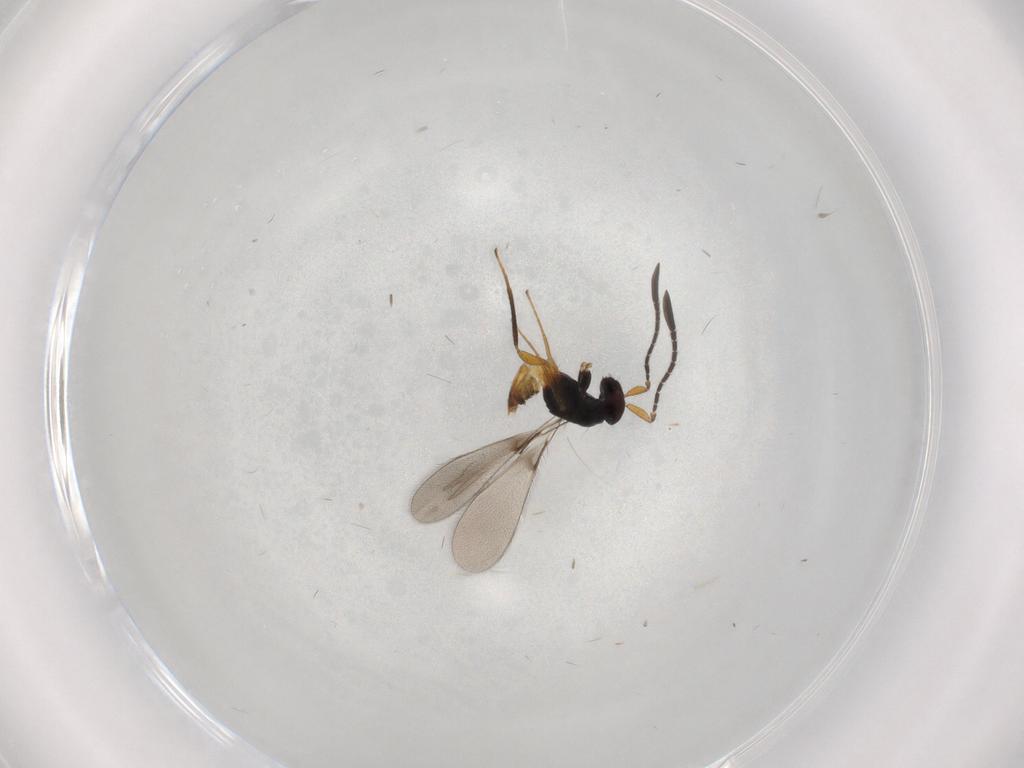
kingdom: Animalia
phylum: Arthropoda
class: Insecta
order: Hymenoptera
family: Mymaridae
